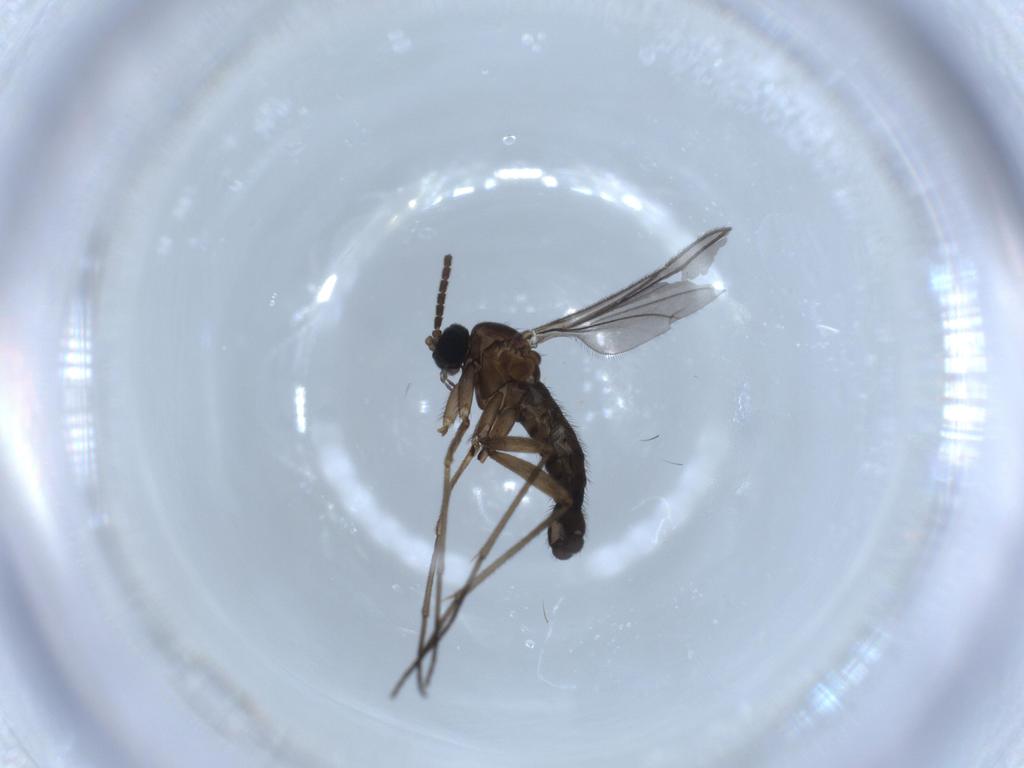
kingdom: Animalia
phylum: Arthropoda
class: Insecta
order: Diptera
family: Sciaridae
